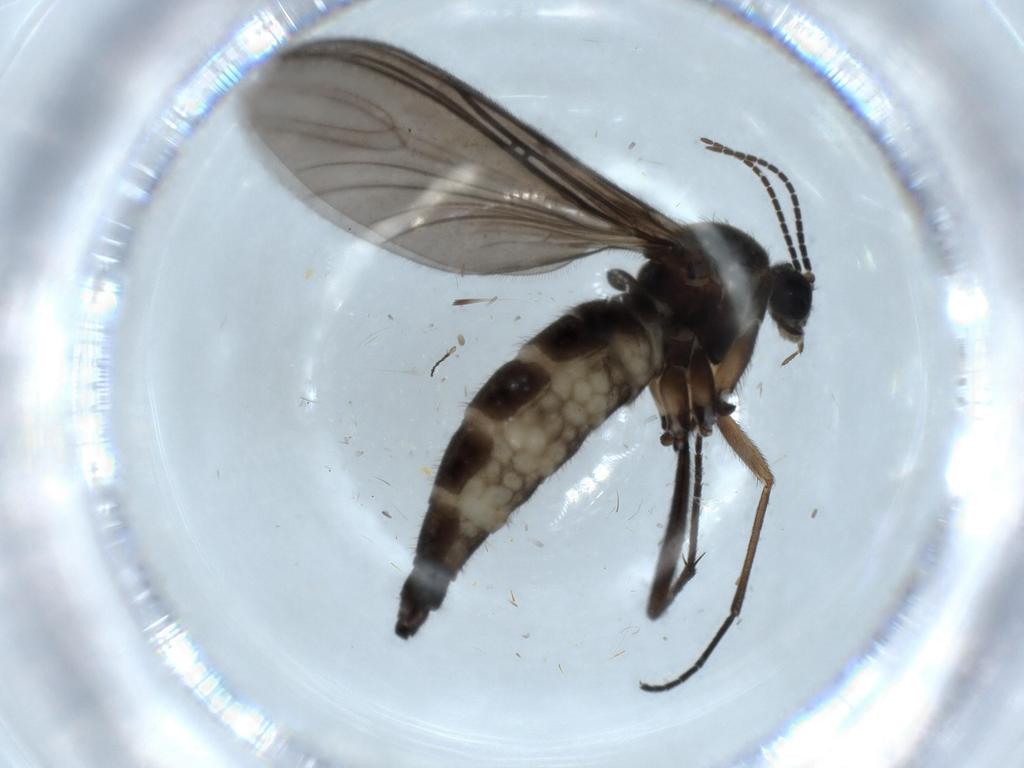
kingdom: Animalia
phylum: Arthropoda
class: Insecta
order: Diptera
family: Sciaridae
